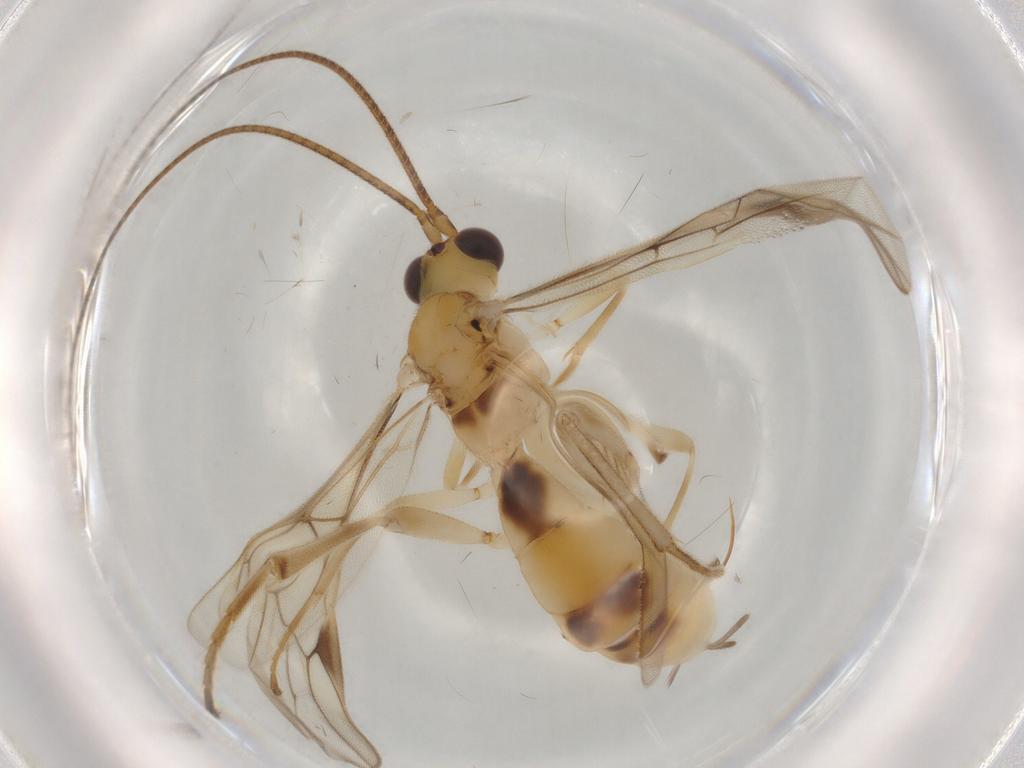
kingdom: Animalia
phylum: Arthropoda
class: Insecta
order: Hymenoptera
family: Braconidae
